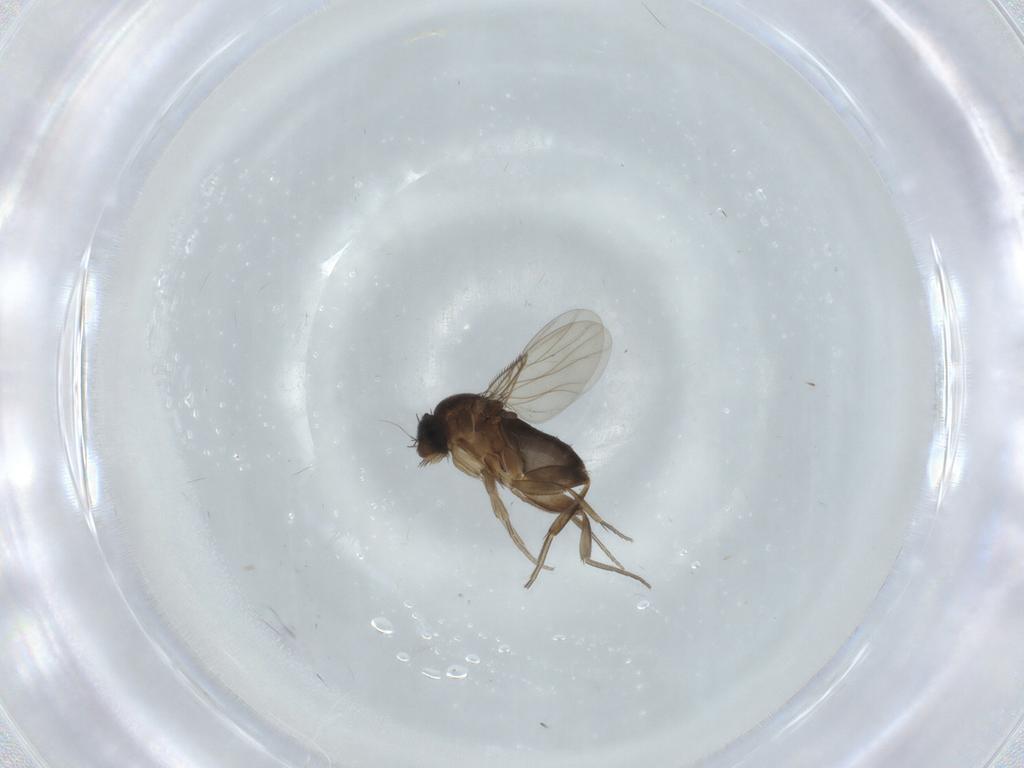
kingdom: Animalia
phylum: Arthropoda
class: Insecta
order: Diptera
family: Phoridae
